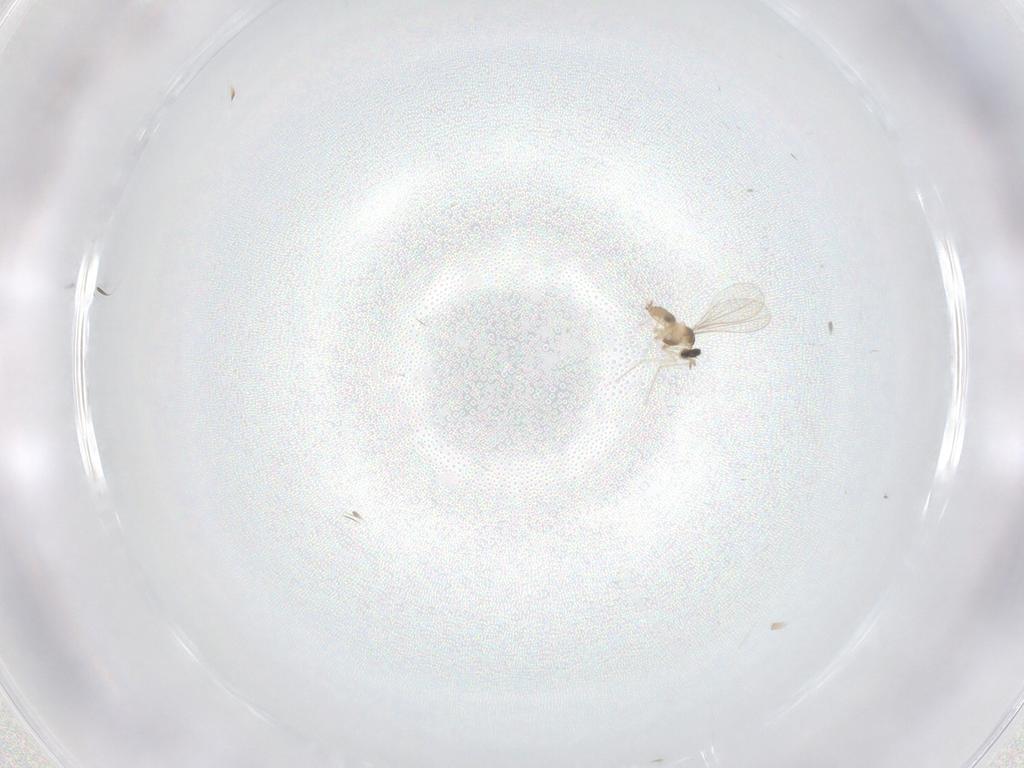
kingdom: Animalia
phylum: Arthropoda
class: Insecta
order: Diptera
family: Cecidomyiidae
